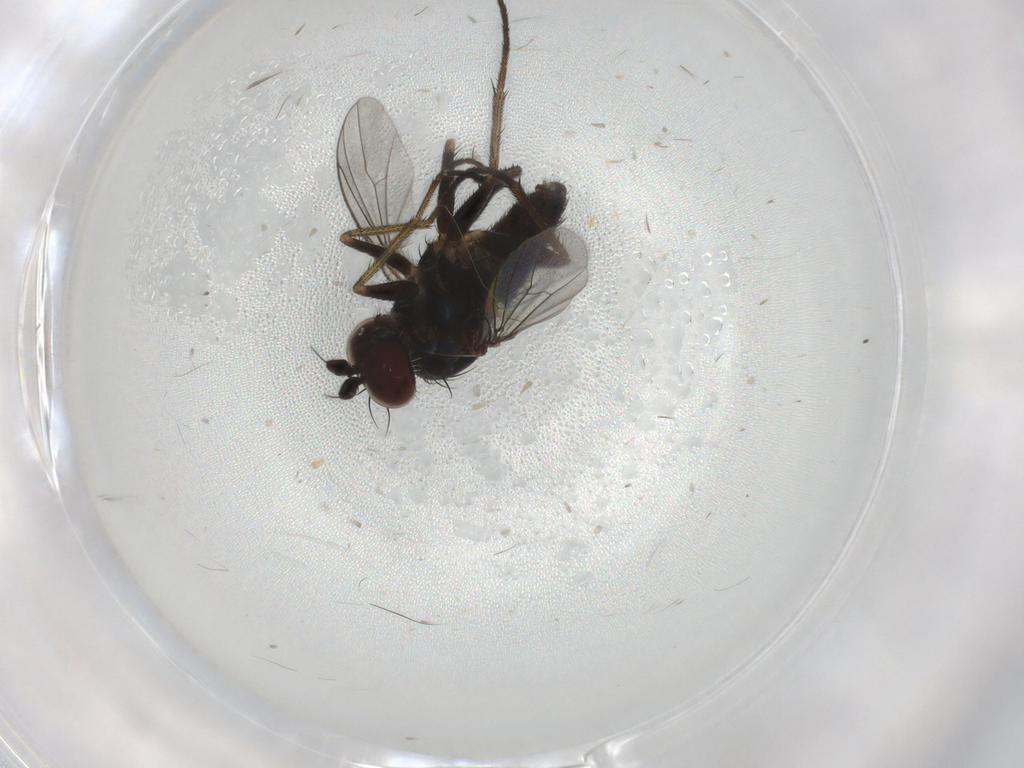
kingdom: Animalia
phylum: Arthropoda
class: Insecta
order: Diptera
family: Dolichopodidae
